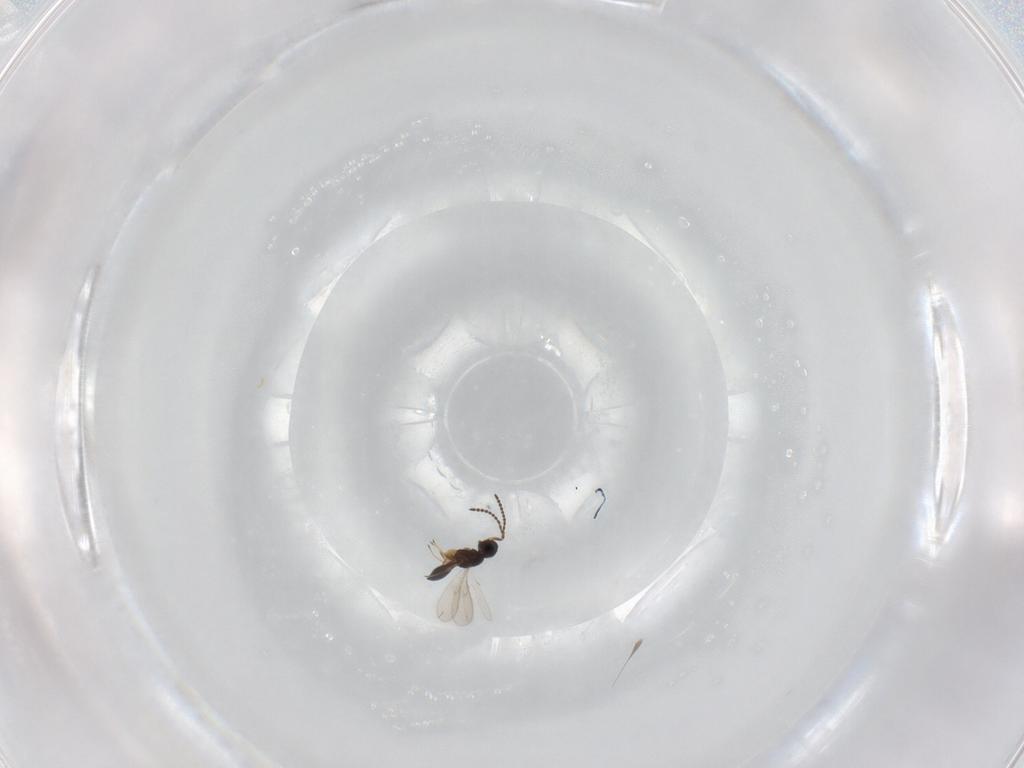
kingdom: Animalia
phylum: Arthropoda
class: Insecta
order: Hymenoptera
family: Scelionidae
